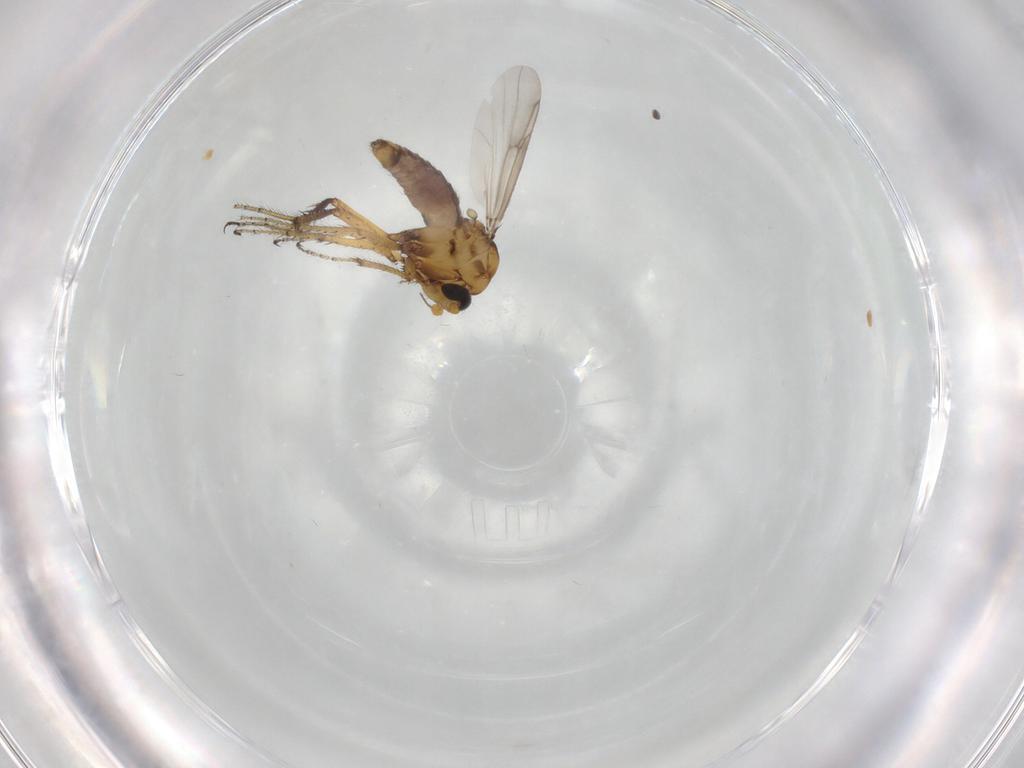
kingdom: Animalia
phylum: Arthropoda
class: Insecta
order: Diptera
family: Ceratopogonidae
